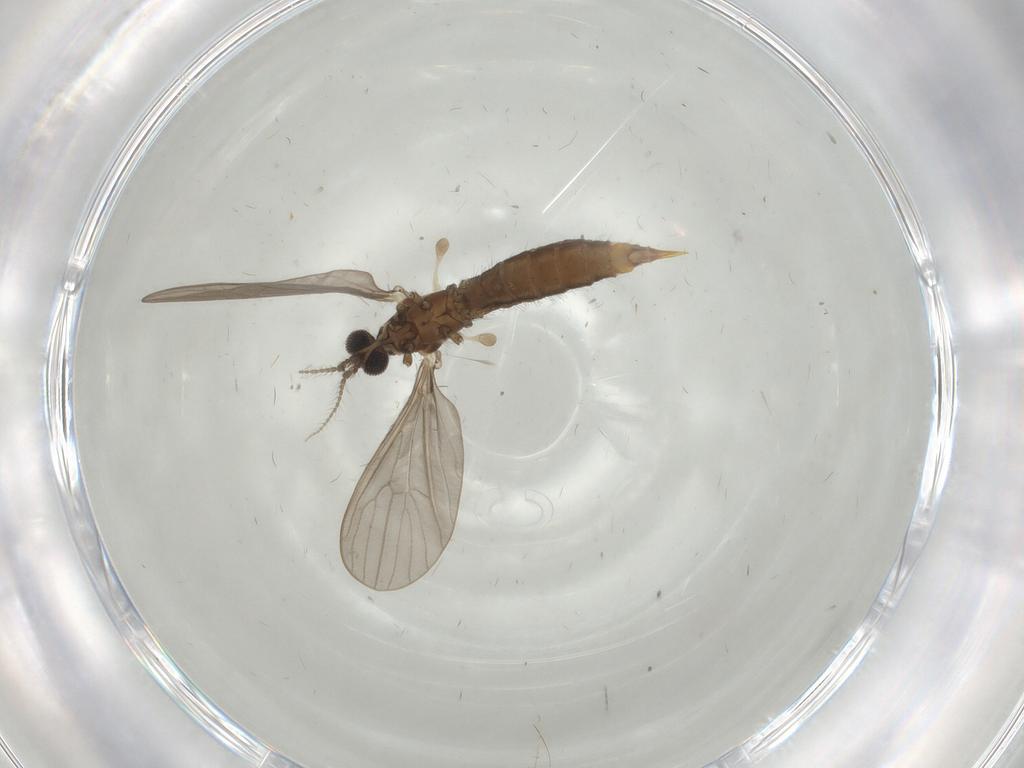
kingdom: Animalia
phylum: Arthropoda
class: Insecta
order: Diptera
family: Limoniidae
